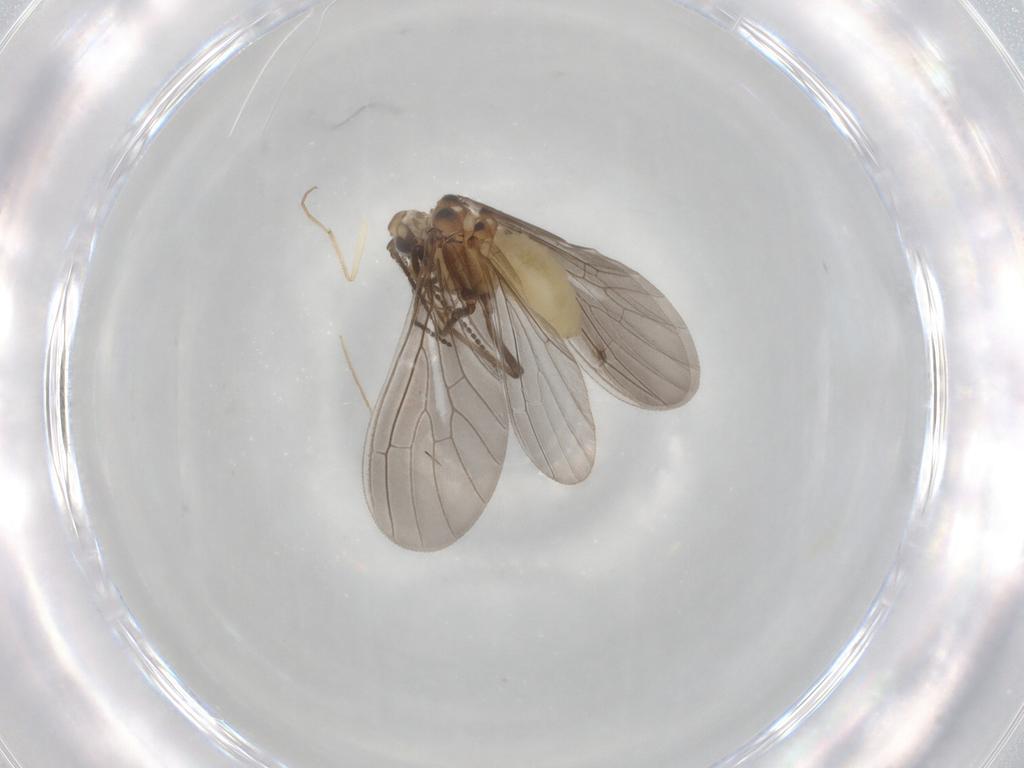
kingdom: Animalia
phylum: Arthropoda
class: Insecta
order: Neuroptera
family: Coniopterygidae
